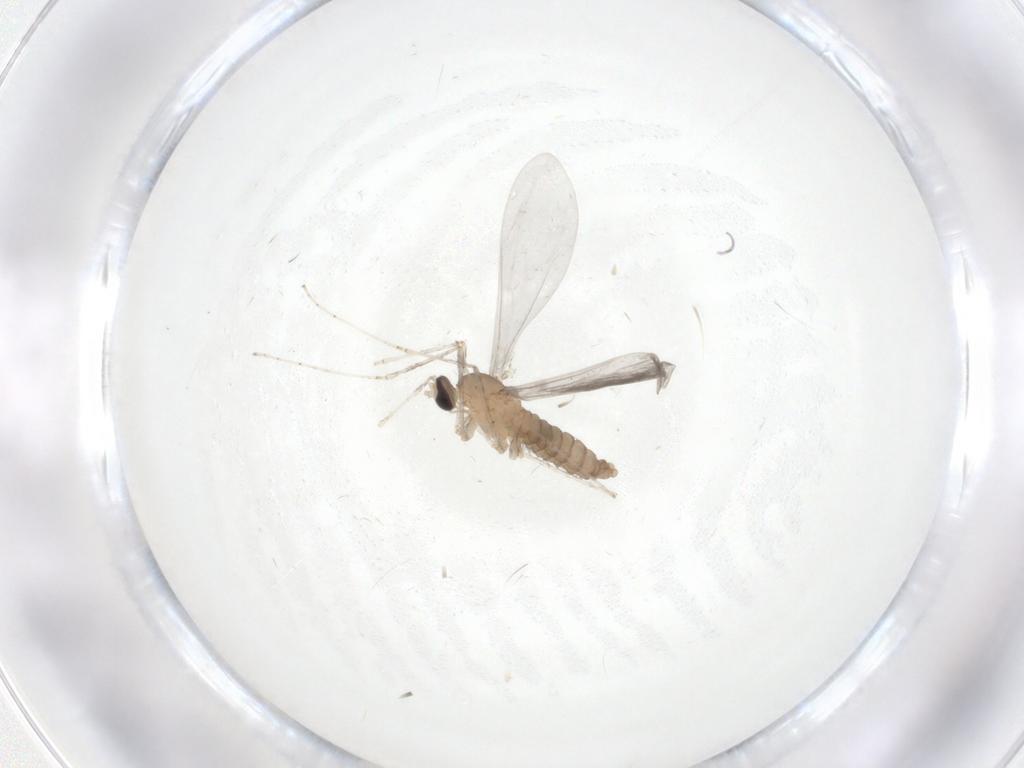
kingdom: Animalia
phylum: Arthropoda
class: Insecta
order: Diptera
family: Cecidomyiidae
